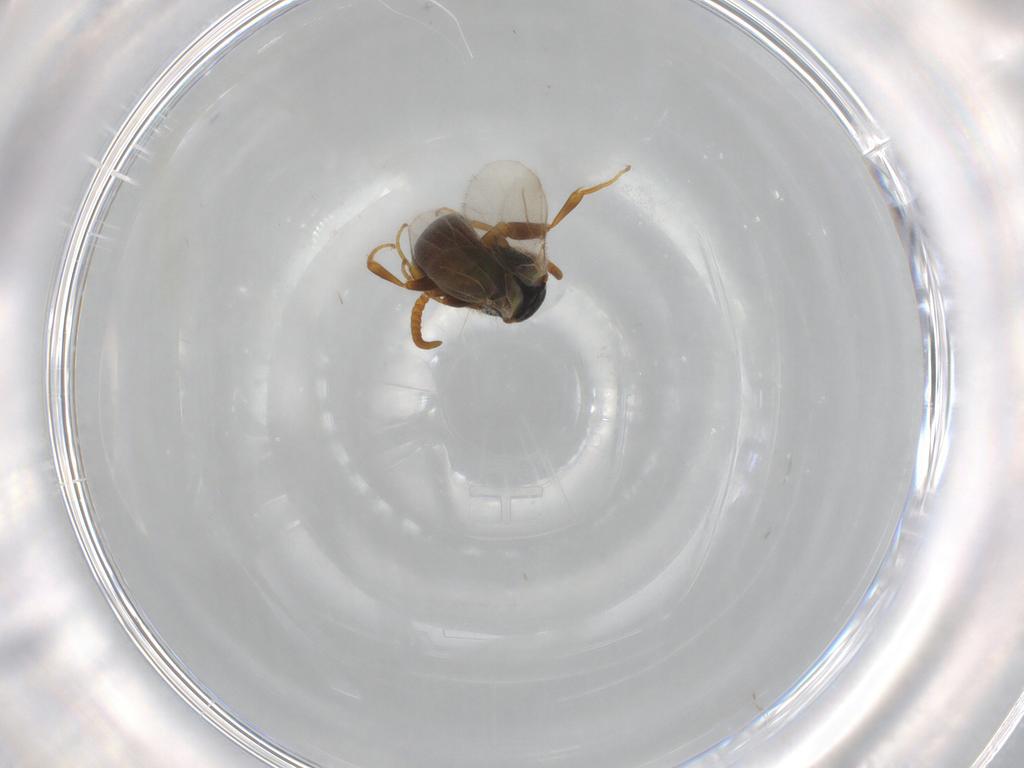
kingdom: Animalia
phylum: Arthropoda
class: Insecta
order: Hymenoptera
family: Bethylidae
